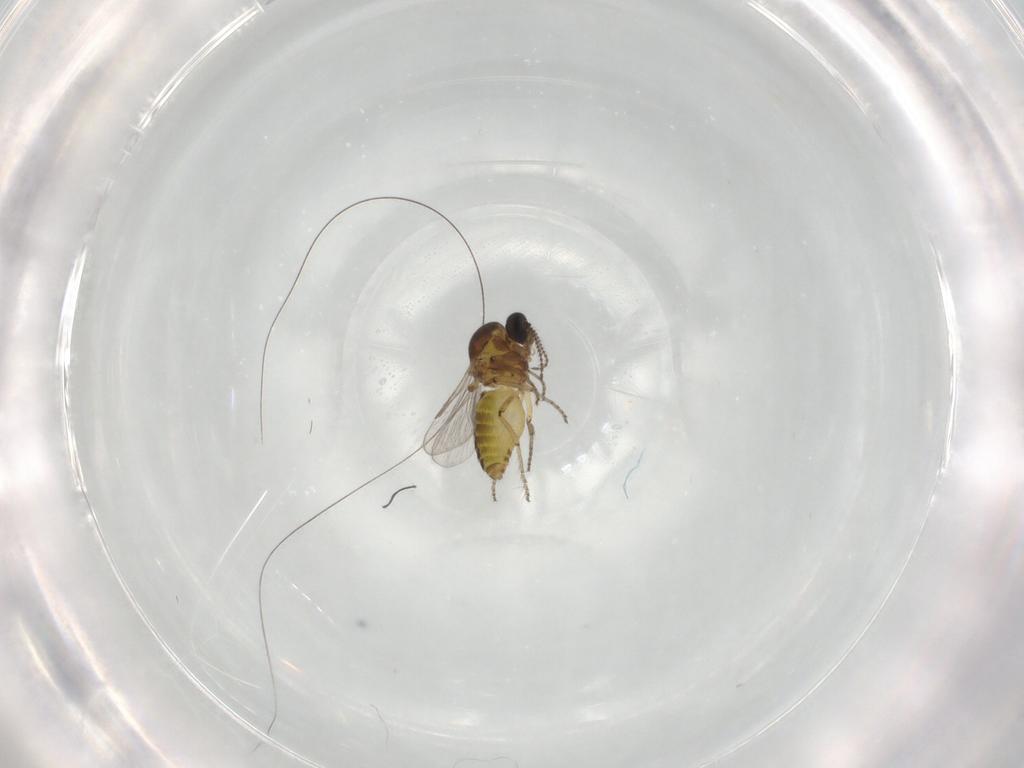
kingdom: Animalia
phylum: Arthropoda
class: Insecta
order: Diptera
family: Ceratopogonidae
